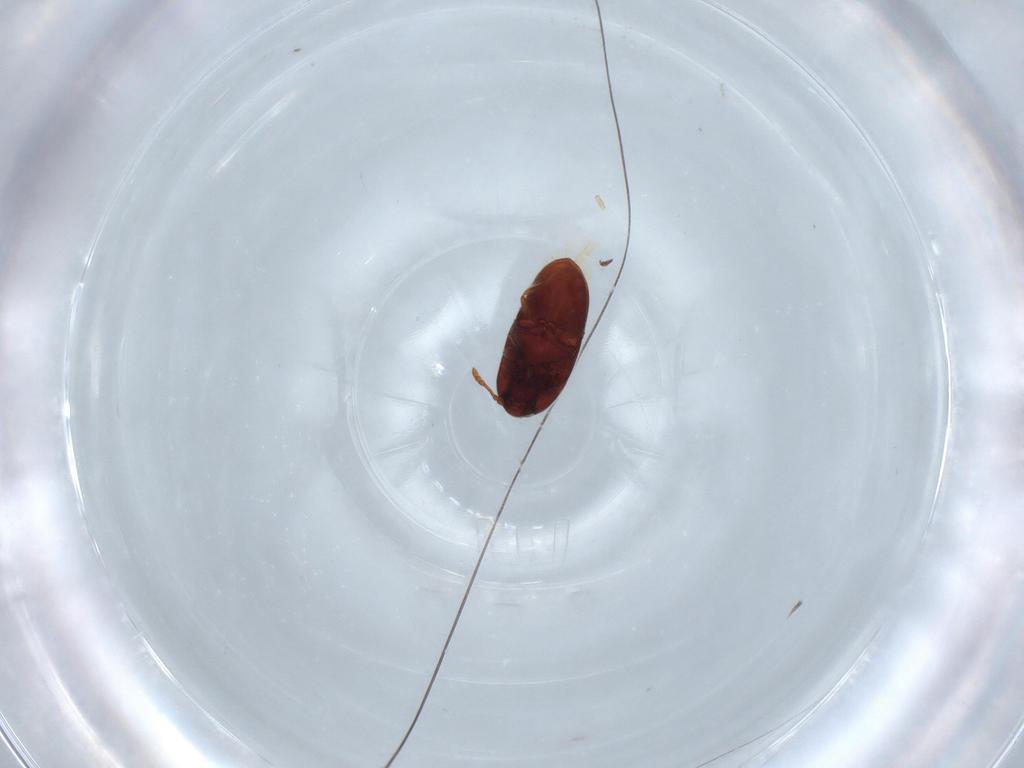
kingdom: Animalia
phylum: Arthropoda
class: Insecta
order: Coleoptera
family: Throscidae
